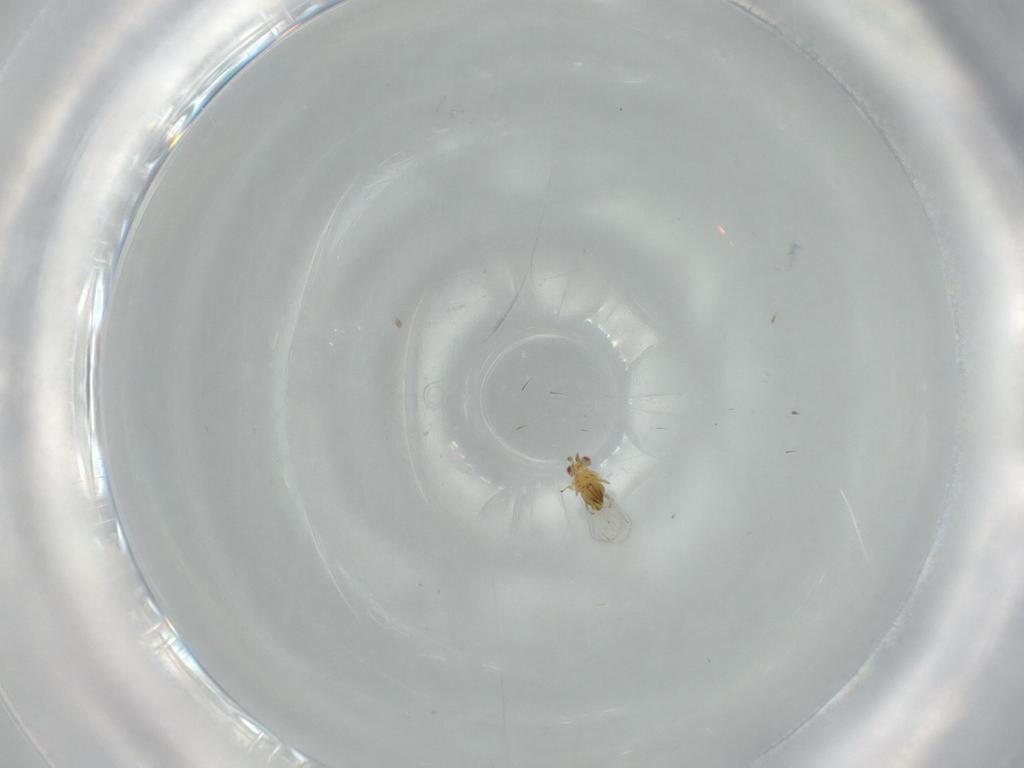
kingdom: Animalia
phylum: Arthropoda
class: Insecta
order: Hymenoptera
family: Trichogrammatidae
